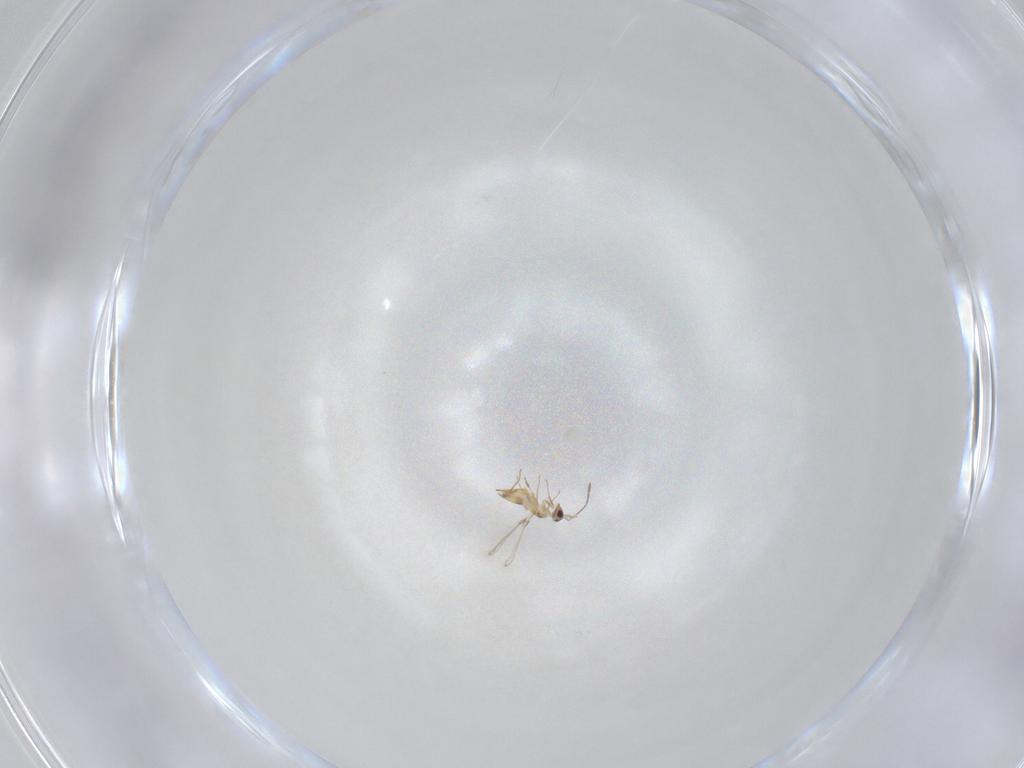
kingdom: Animalia
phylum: Arthropoda
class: Insecta
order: Hymenoptera
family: Mymaridae
